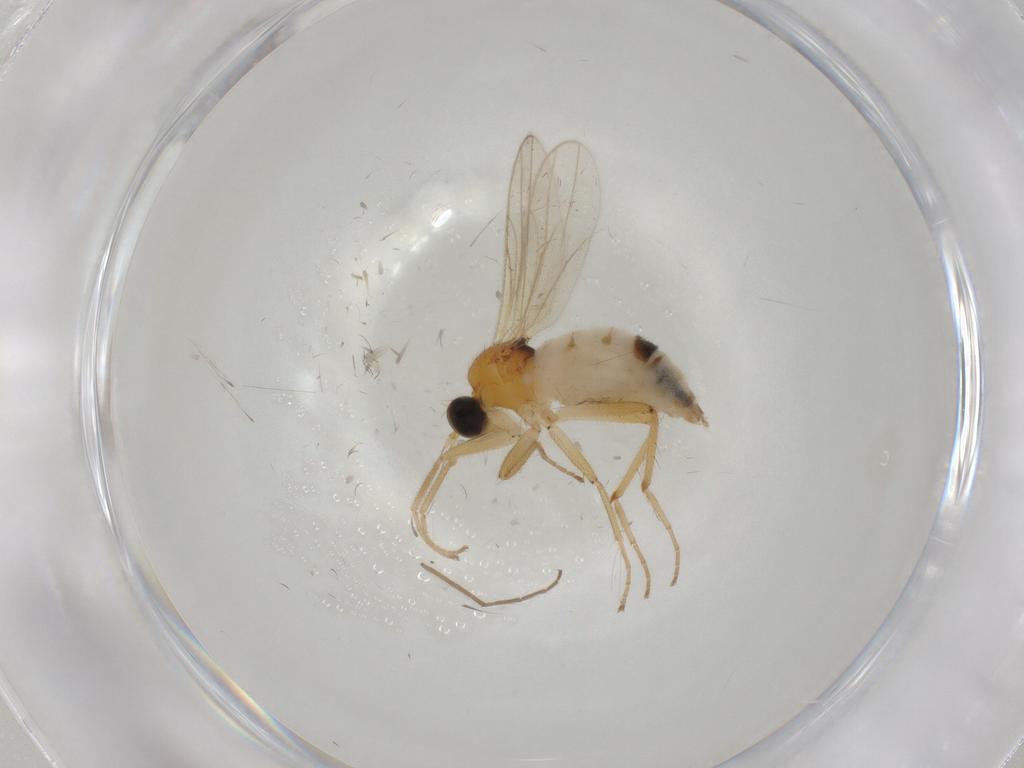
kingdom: Animalia
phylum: Arthropoda
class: Insecta
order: Diptera
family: Hybotidae
